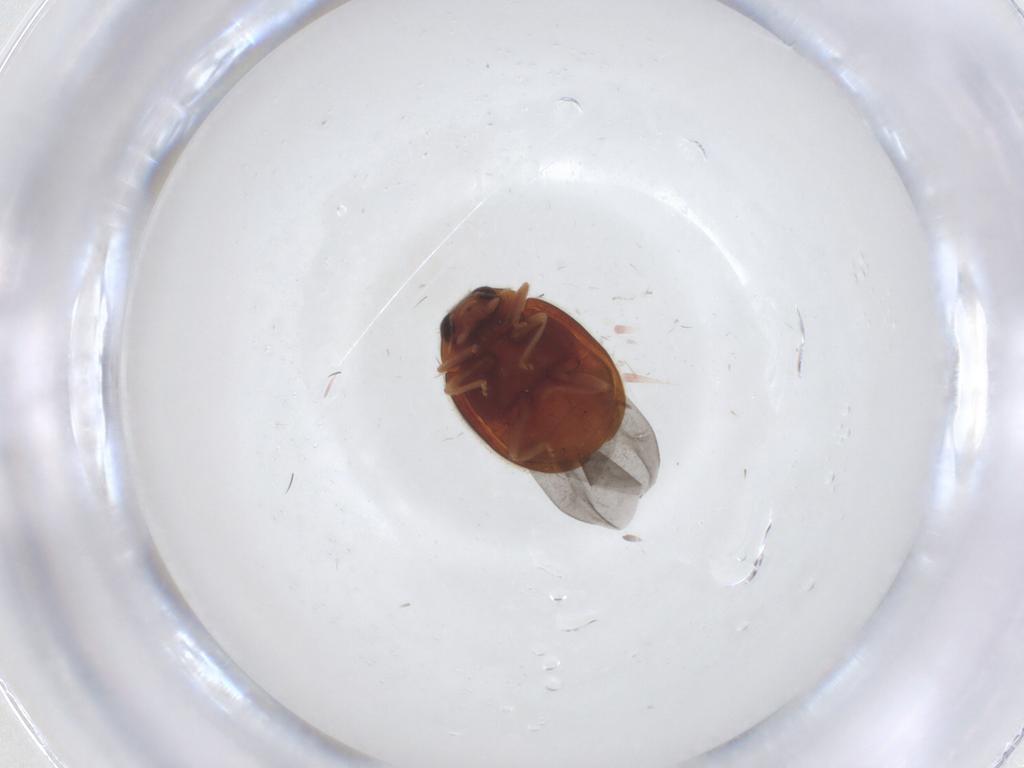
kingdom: Animalia
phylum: Arthropoda
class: Insecta
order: Coleoptera
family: Coccinellidae
